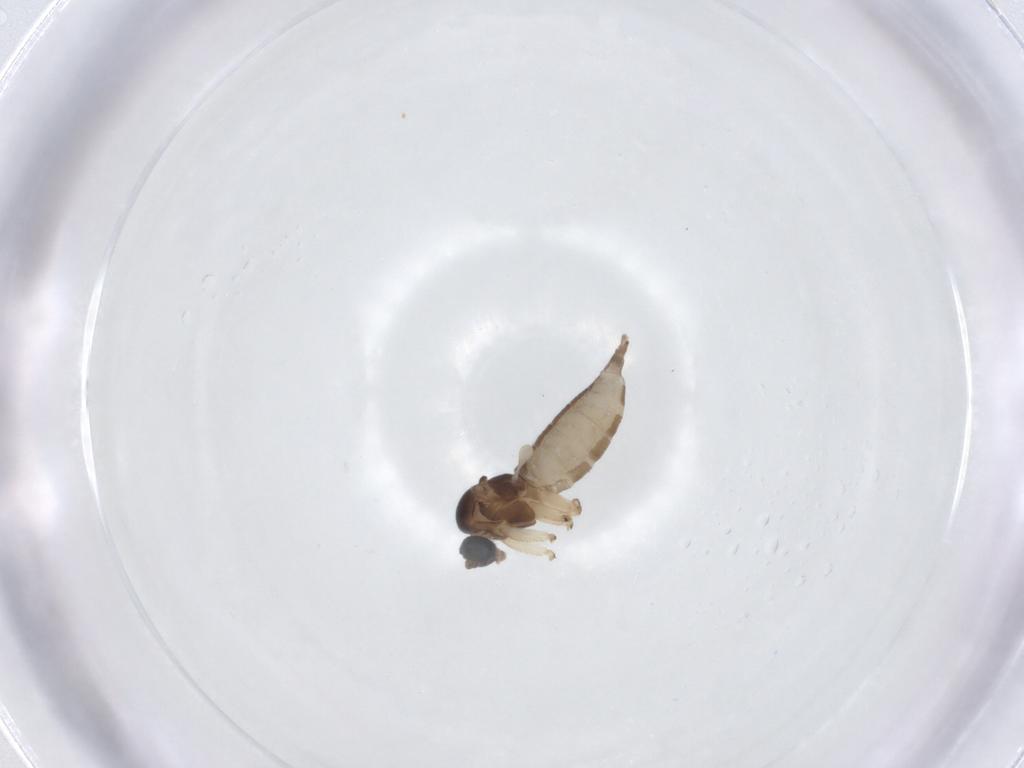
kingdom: Animalia
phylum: Arthropoda
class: Insecta
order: Diptera
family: Sciaridae
